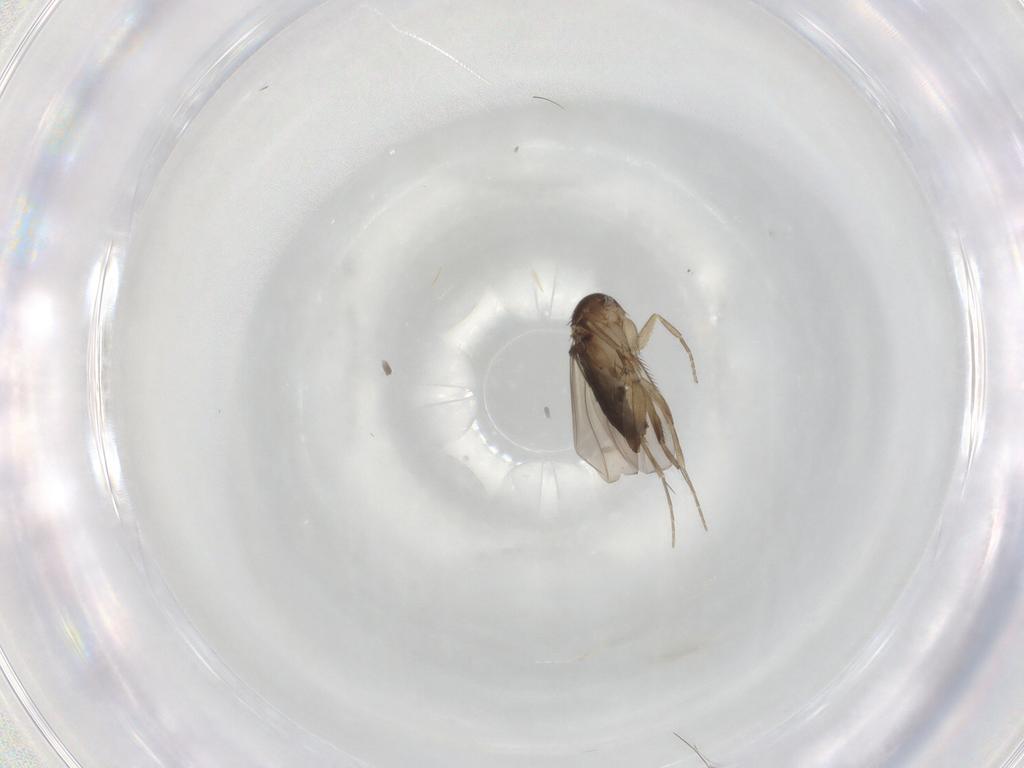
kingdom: Animalia
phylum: Arthropoda
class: Insecta
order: Diptera
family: Phoridae
